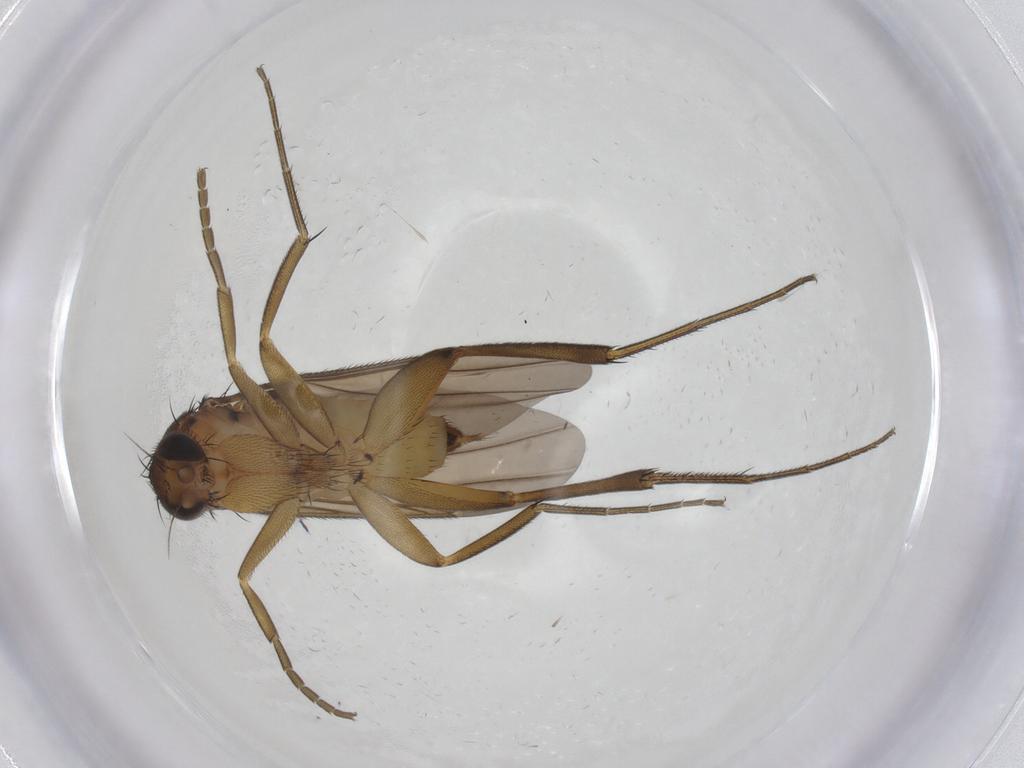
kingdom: Animalia
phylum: Arthropoda
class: Insecta
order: Diptera
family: Phoridae
